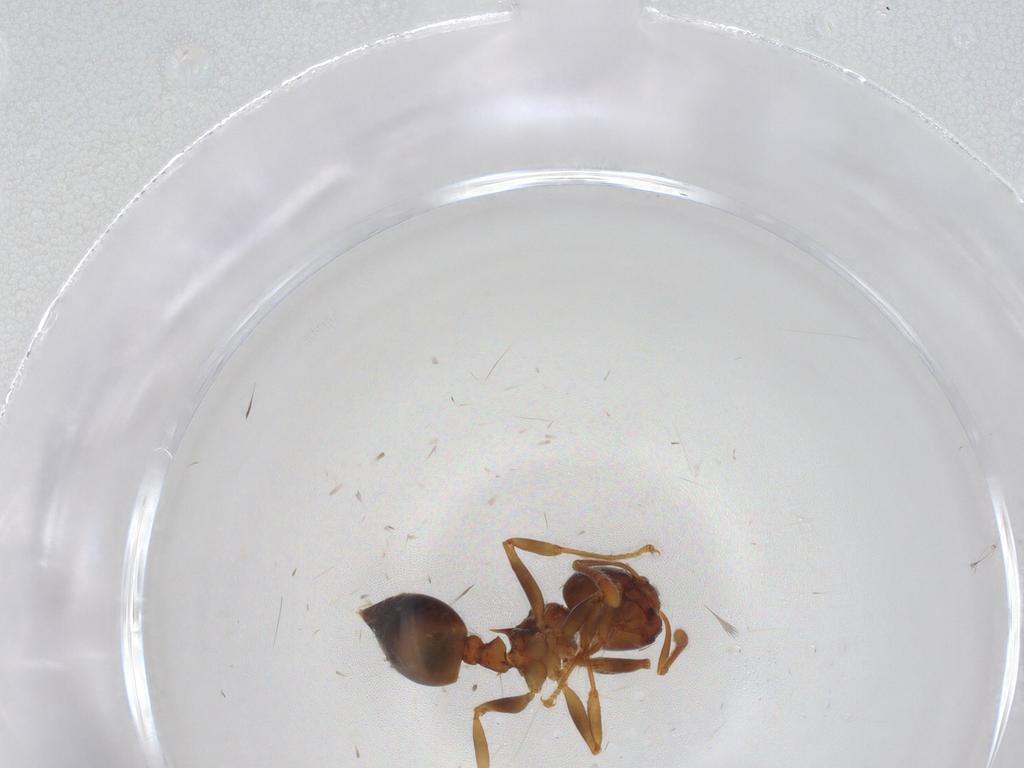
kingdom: Animalia
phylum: Arthropoda
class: Insecta
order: Hymenoptera
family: Formicidae
